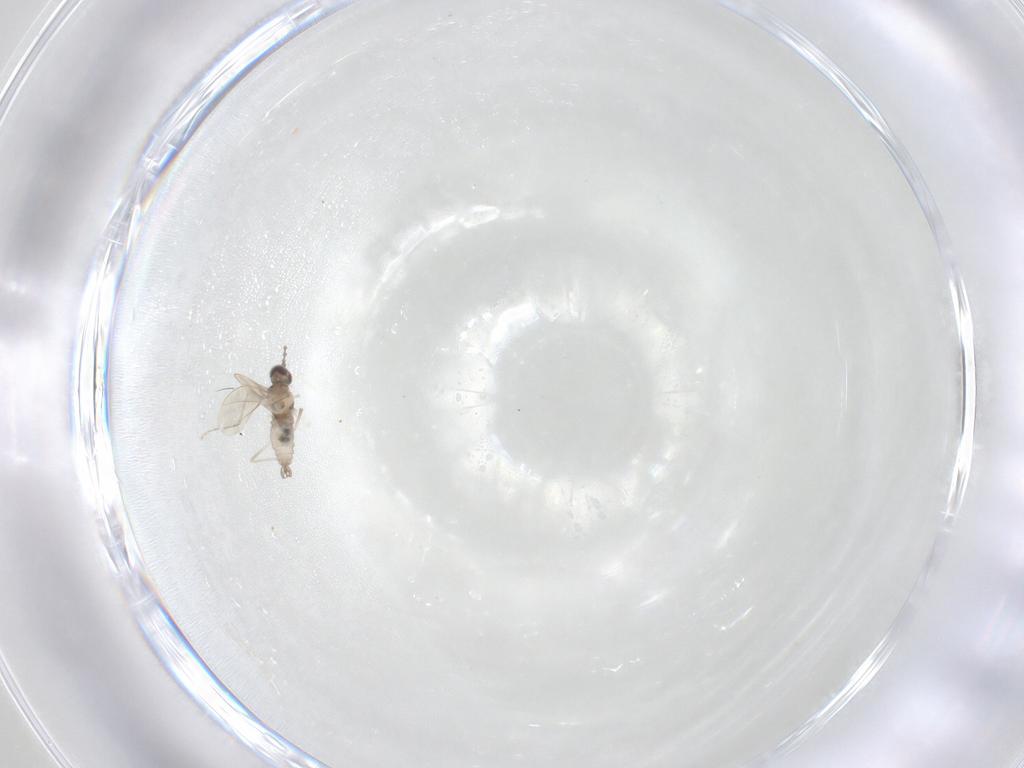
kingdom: Animalia
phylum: Arthropoda
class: Insecta
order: Diptera
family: Cecidomyiidae
